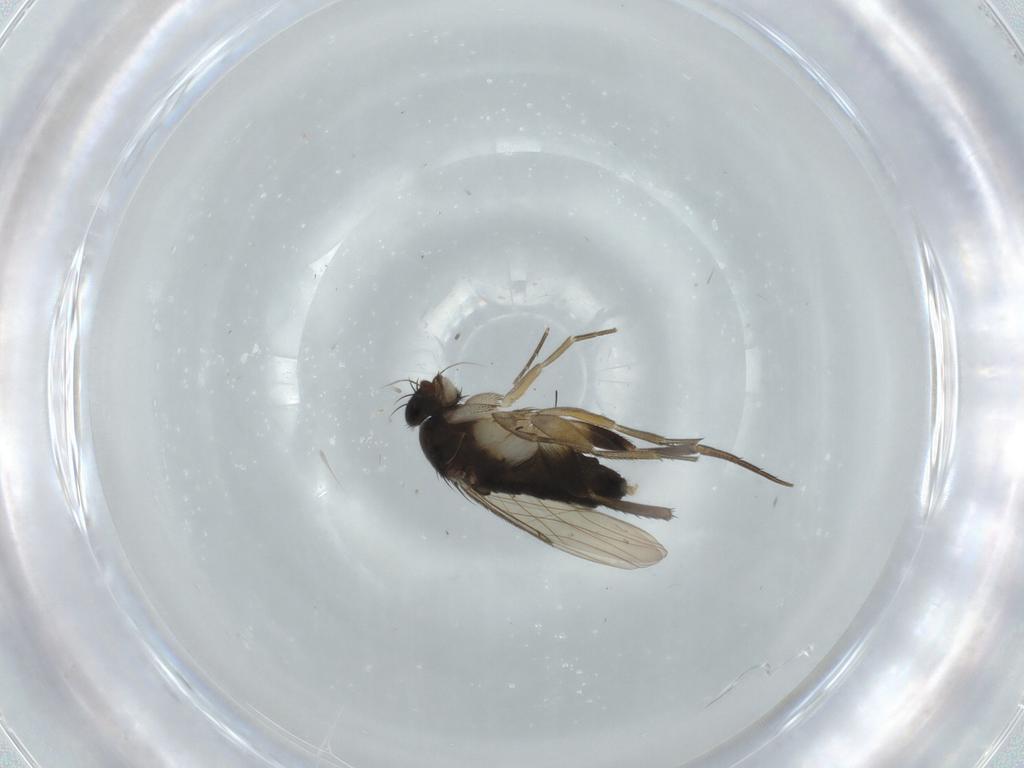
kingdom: Animalia
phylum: Arthropoda
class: Insecta
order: Diptera
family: Phoridae
